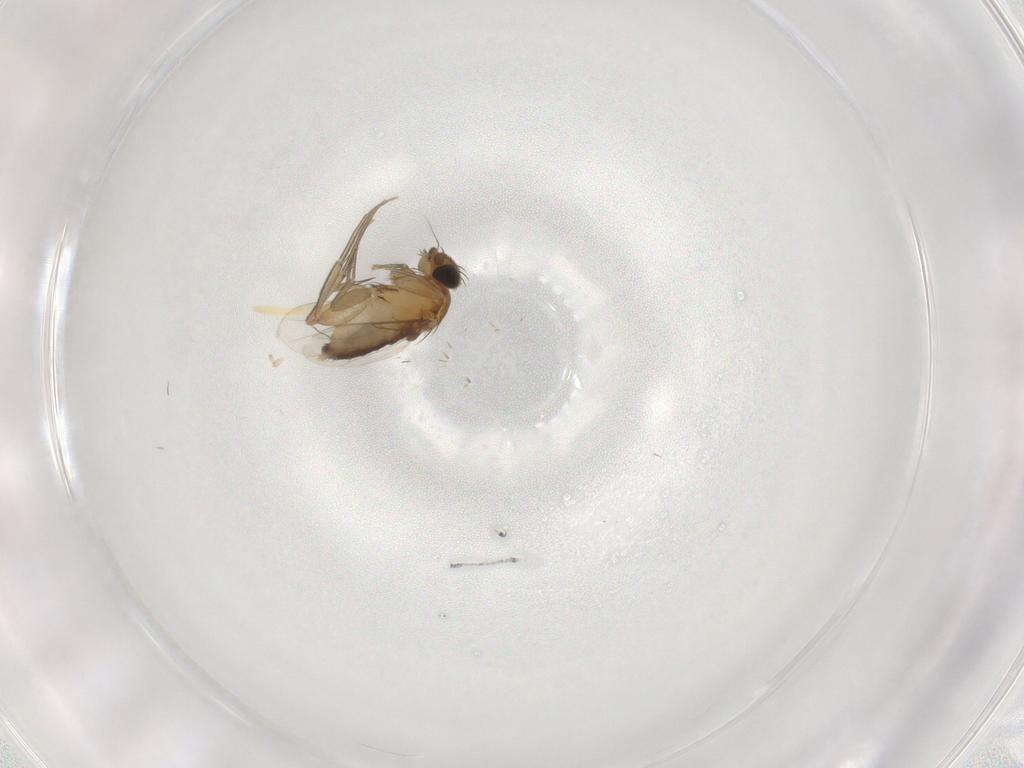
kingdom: Animalia
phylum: Arthropoda
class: Insecta
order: Diptera
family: Phoridae
